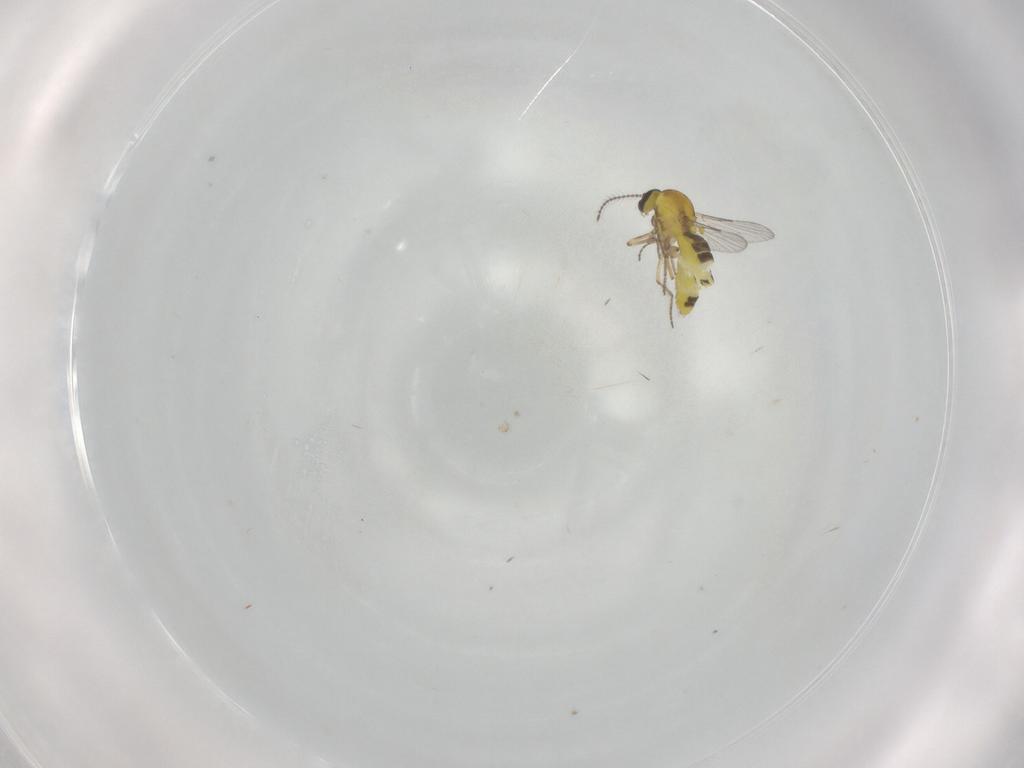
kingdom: Animalia
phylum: Arthropoda
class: Insecta
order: Diptera
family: Ceratopogonidae
